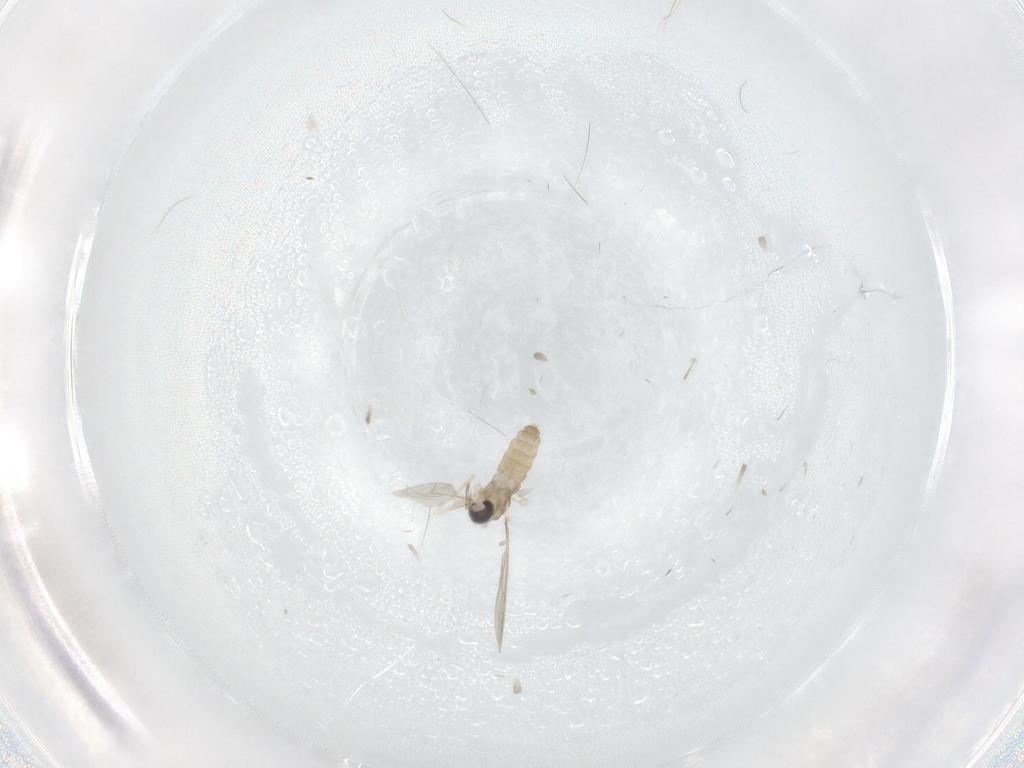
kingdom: Animalia
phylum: Arthropoda
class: Insecta
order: Diptera
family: Cecidomyiidae
